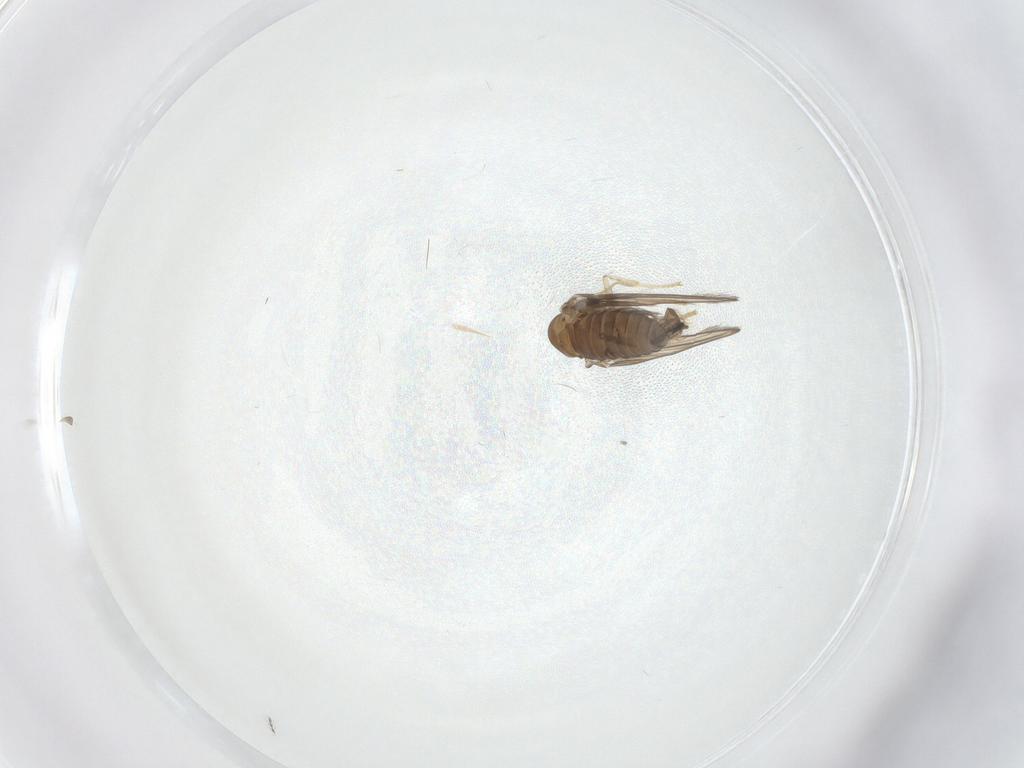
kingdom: Animalia
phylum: Arthropoda
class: Insecta
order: Diptera
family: Psychodidae
